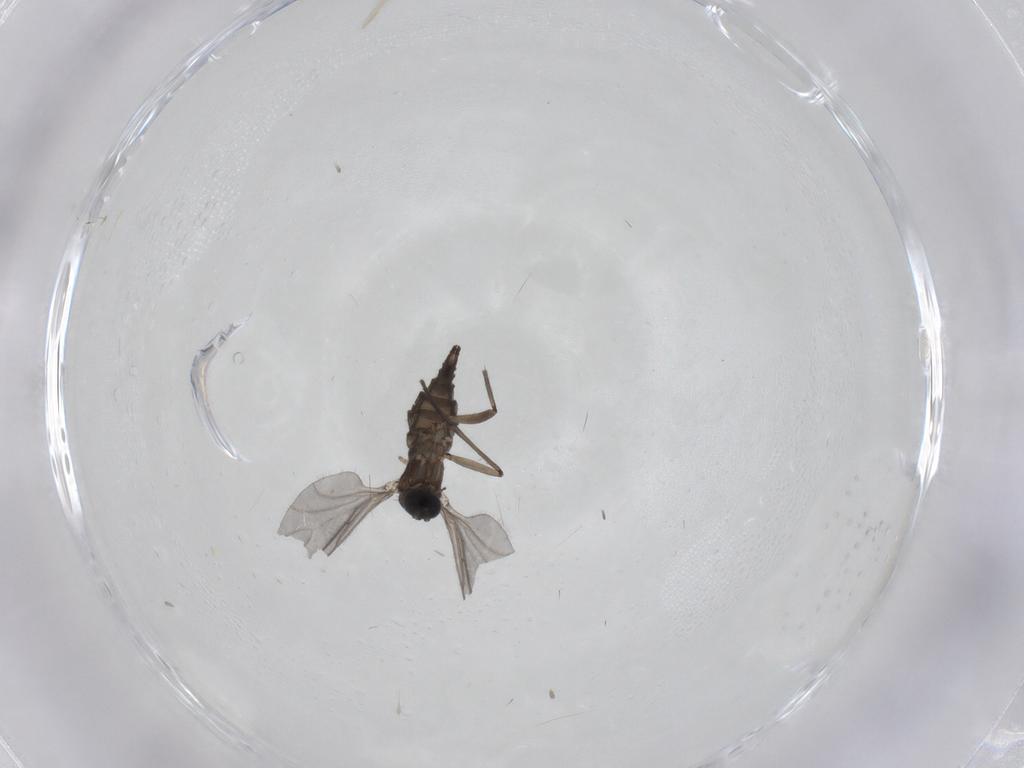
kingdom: Animalia
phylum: Arthropoda
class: Insecta
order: Diptera
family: Sciaridae
